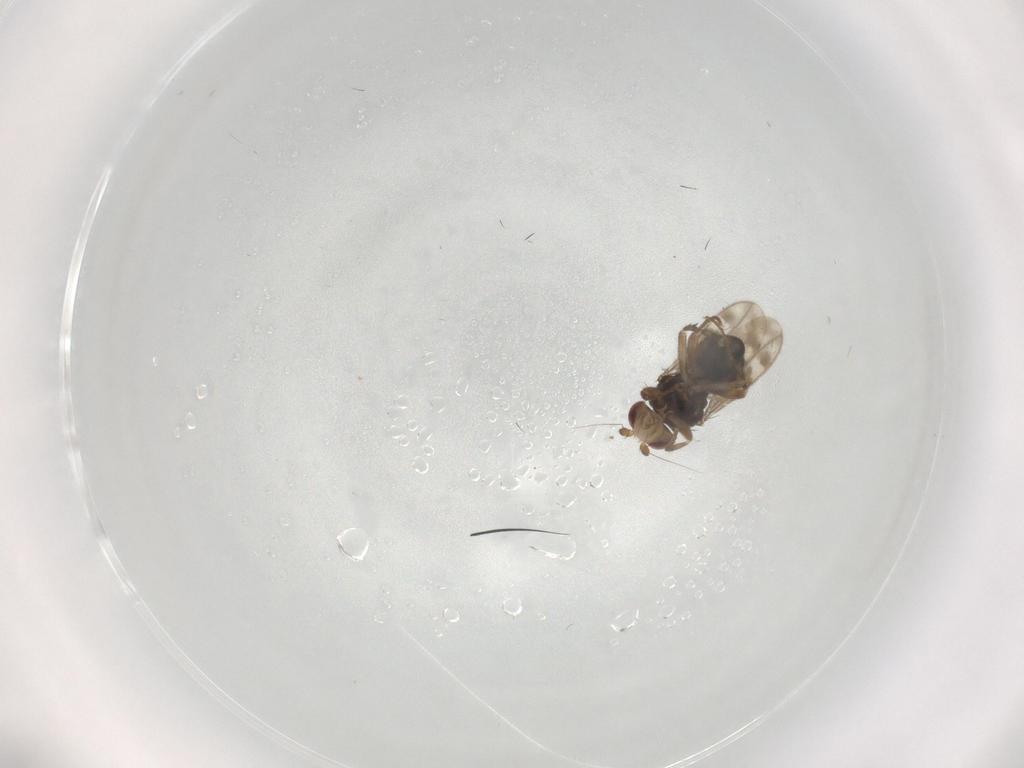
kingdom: Animalia
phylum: Arthropoda
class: Insecta
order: Diptera
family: Sphaeroceridae
